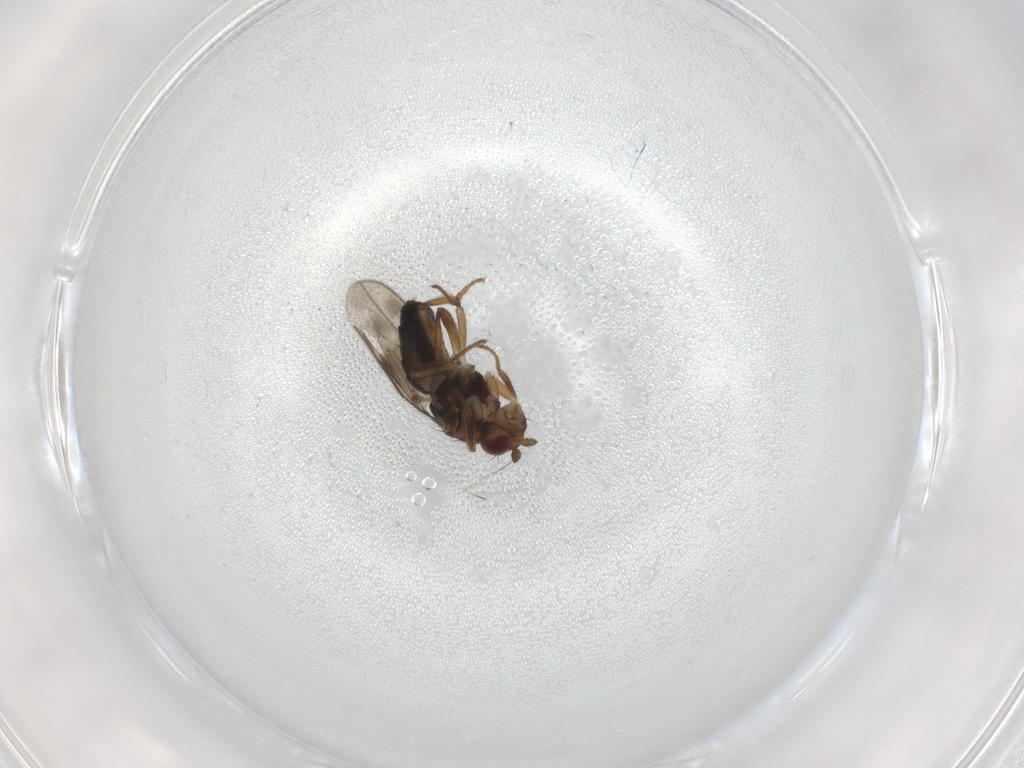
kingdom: Animalia
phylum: Arthropoda
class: Insecta
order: Diptera
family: Sphaeroceridae
